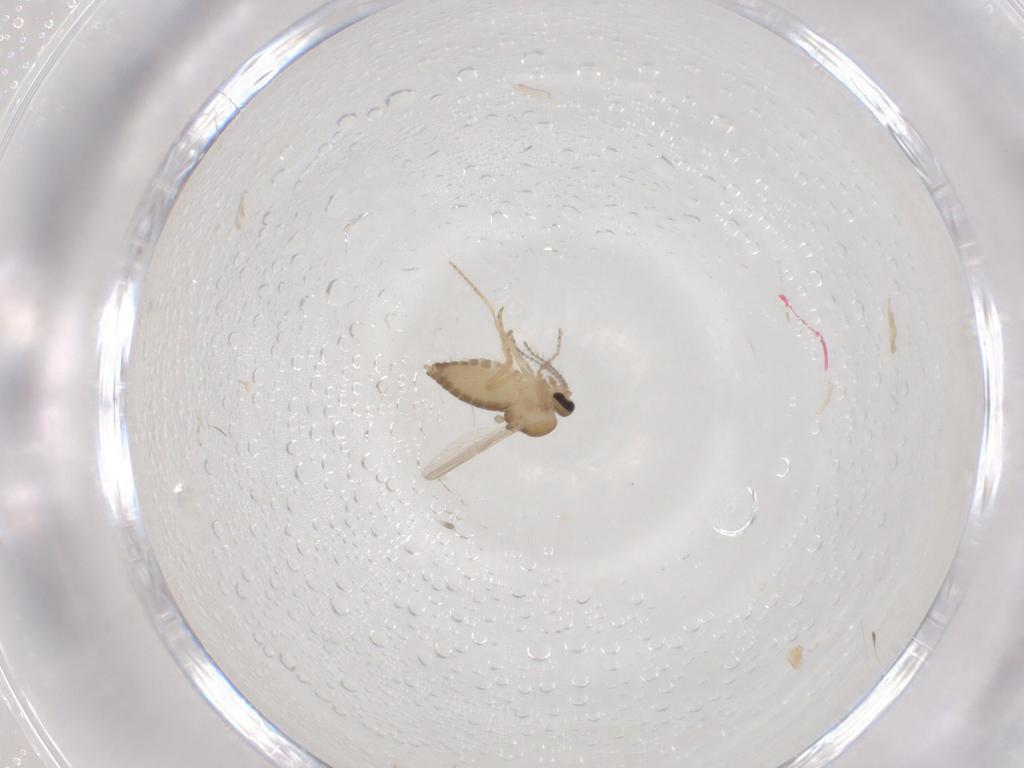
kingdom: Animalia
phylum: Arthropoda
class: Insecta
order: Diptera
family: Ceratopogonidae
